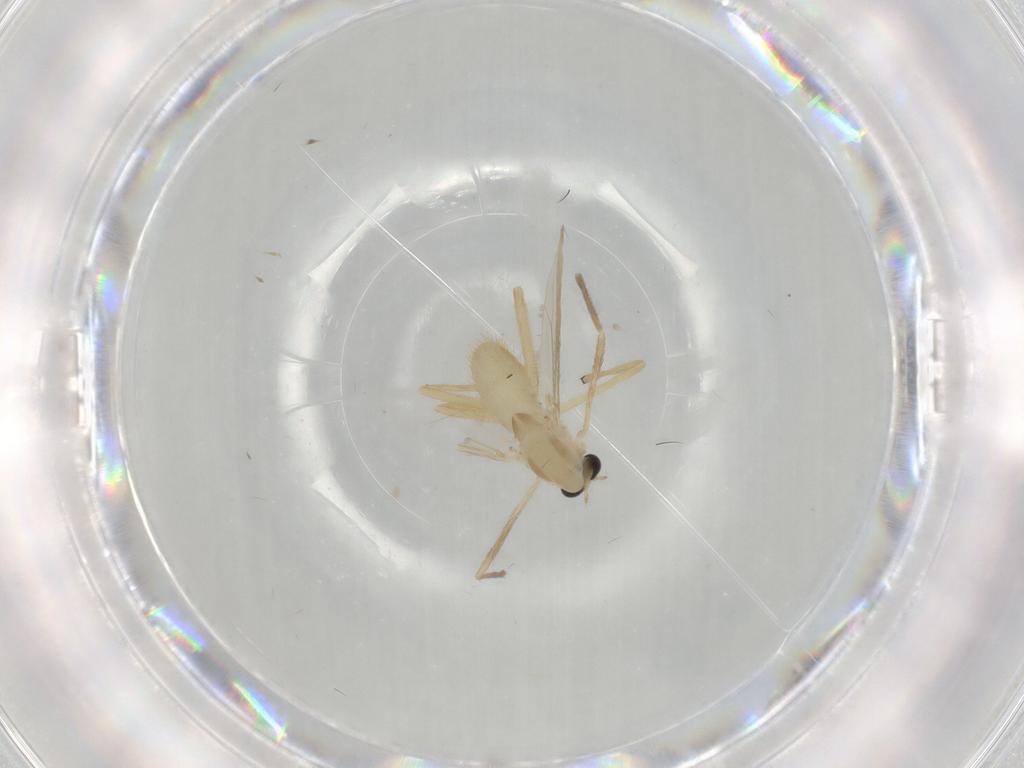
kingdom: Animalia
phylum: Arthropoda
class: Insecta
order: Diptera
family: Chironomidae
